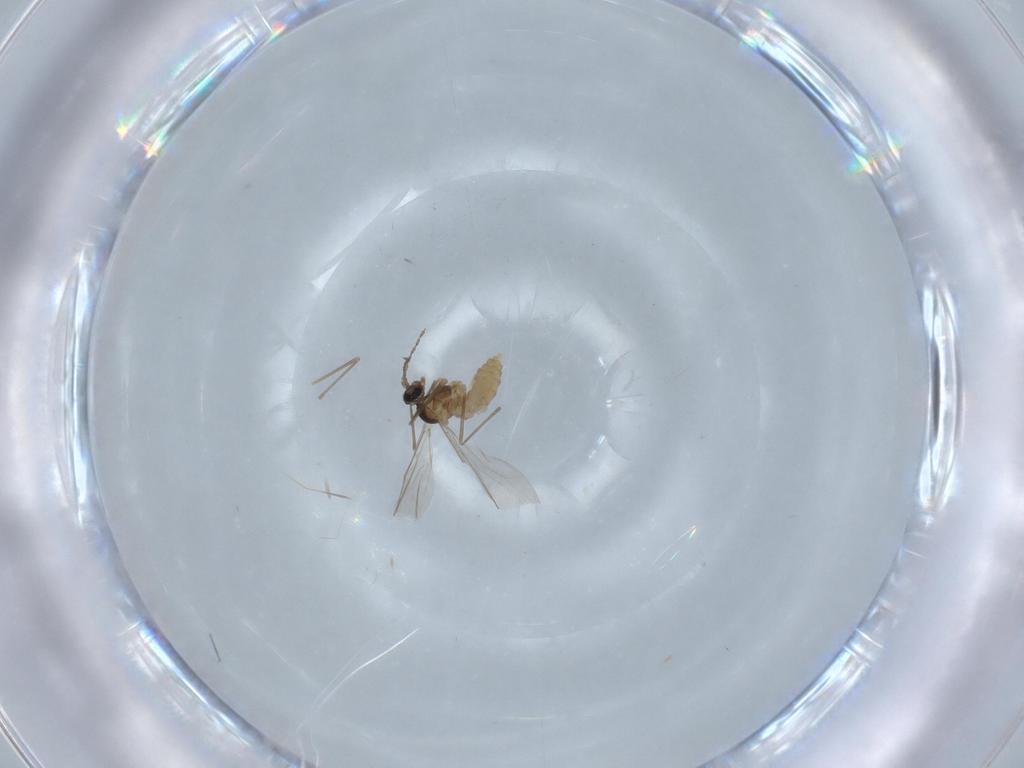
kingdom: Animalia
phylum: Arthropoda
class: Insecta
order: Diptera
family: Cecidomyiidae
